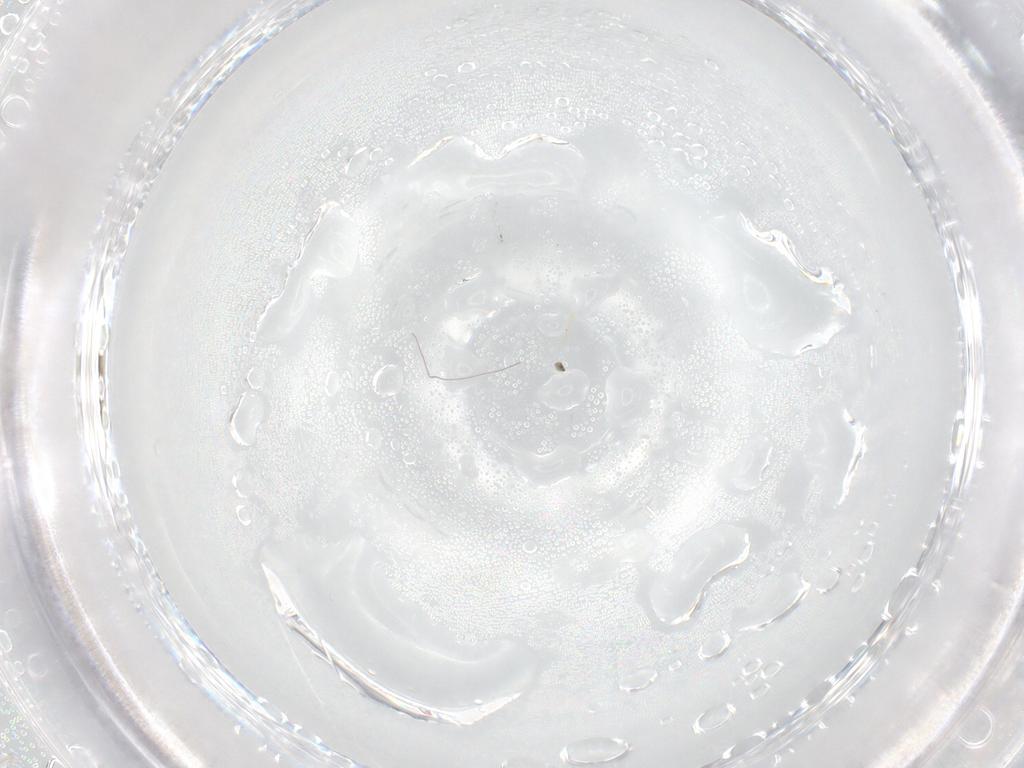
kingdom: Animalia
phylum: Arthropoda
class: Insecta
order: Hymenoptera
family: Mymaridae
